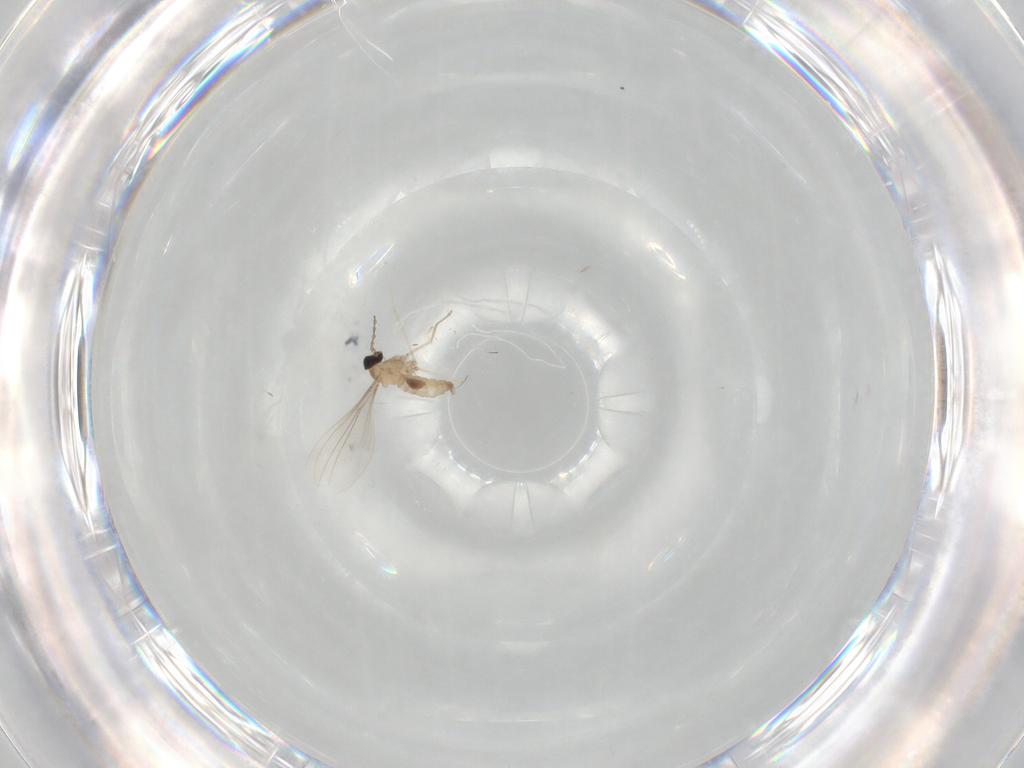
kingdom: Animalia
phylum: Arthropoda
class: Insecta
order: Diptera
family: Cecidomyiidae
